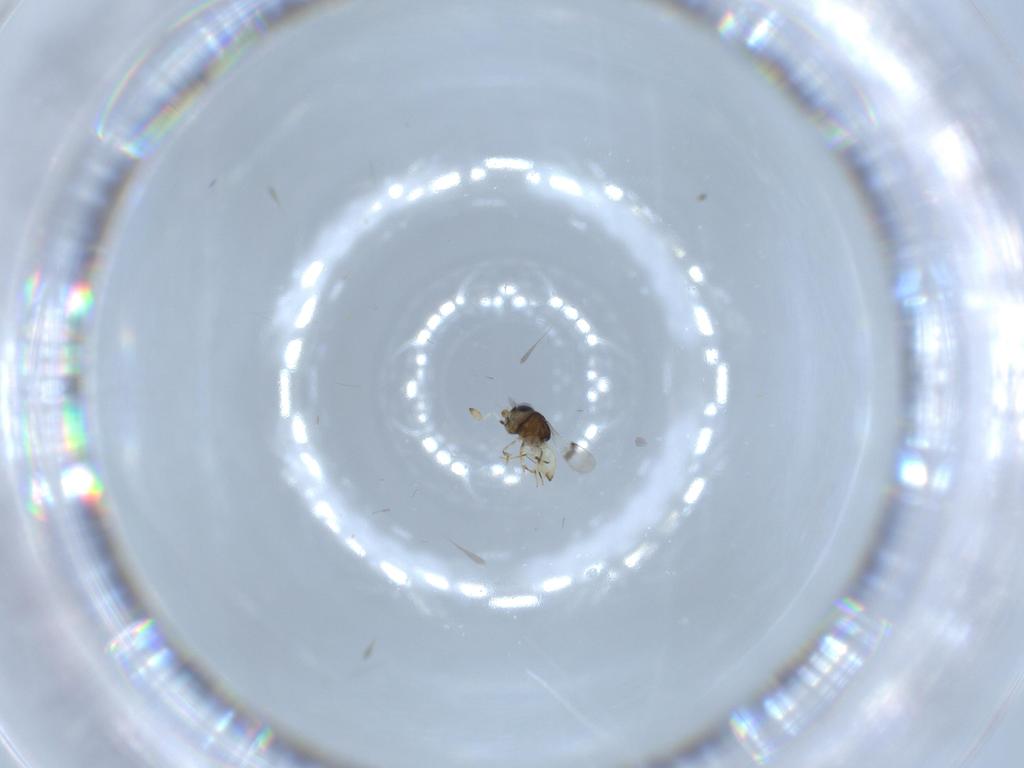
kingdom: Animalia
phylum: Arthropoda
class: Insecta
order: Hymenoptera
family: Scelionidae
